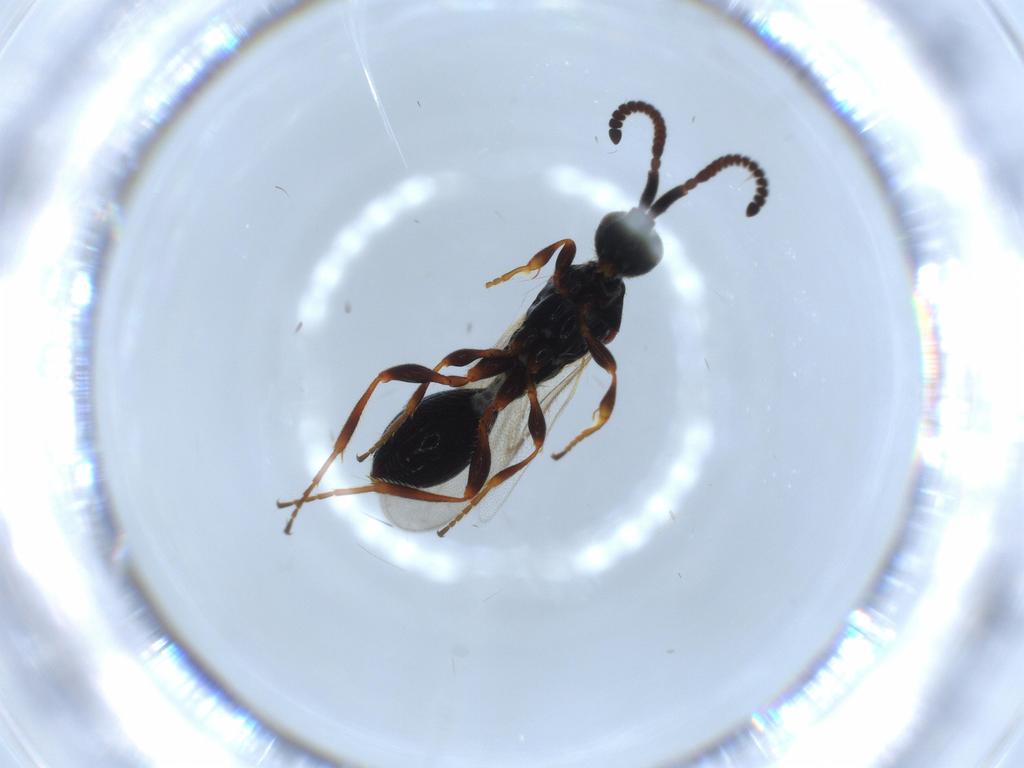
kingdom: Animalia
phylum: Arthropoda
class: Insecta
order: Hymenoptera
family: Diapriidae
